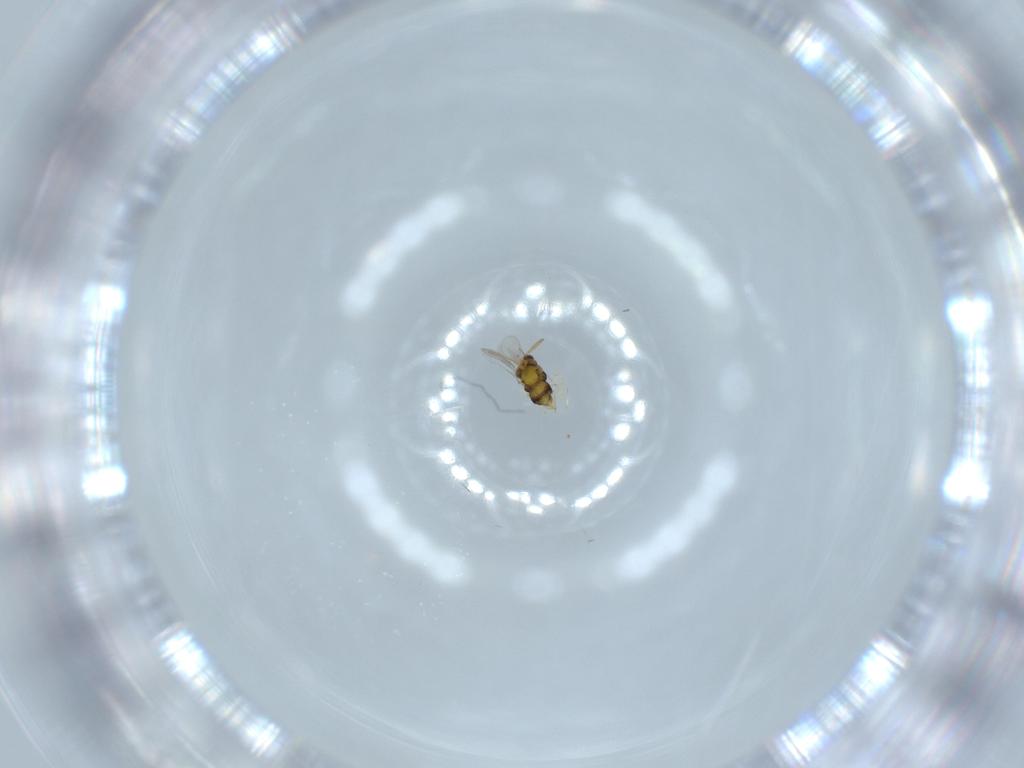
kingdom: Animalia
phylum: Arthropoda
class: Insecta
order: Hymenoptera
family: Aphelinidae
